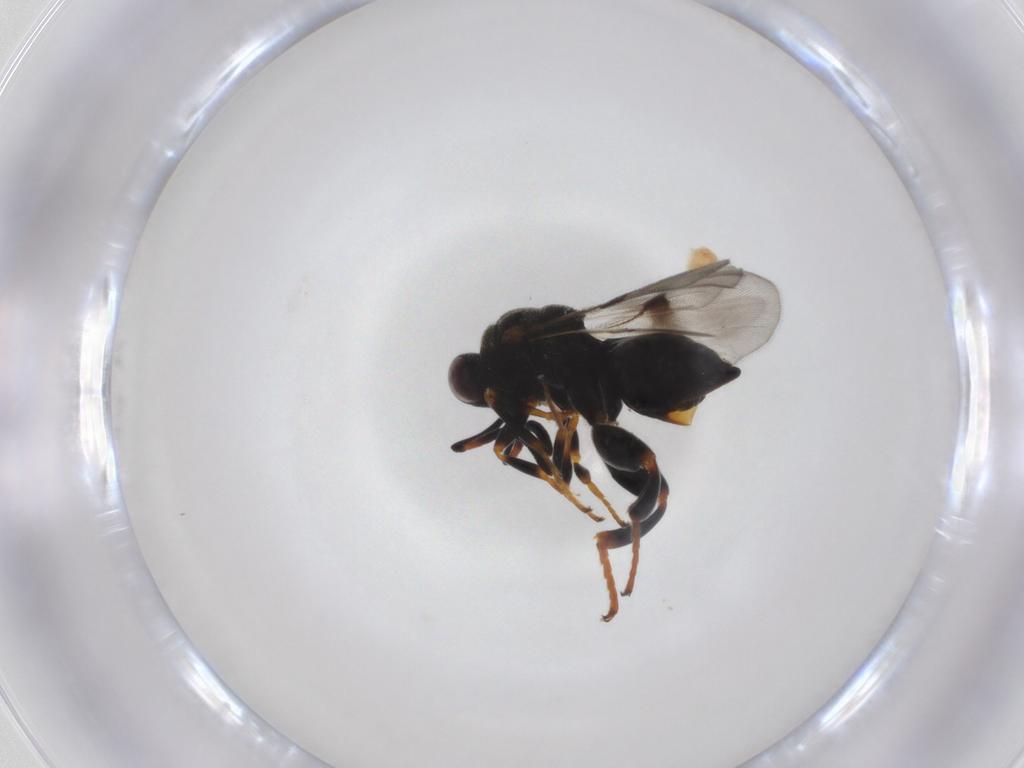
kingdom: Animalia
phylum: Arthropoda
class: Insecta
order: Hymenoptera
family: Chalcididae
